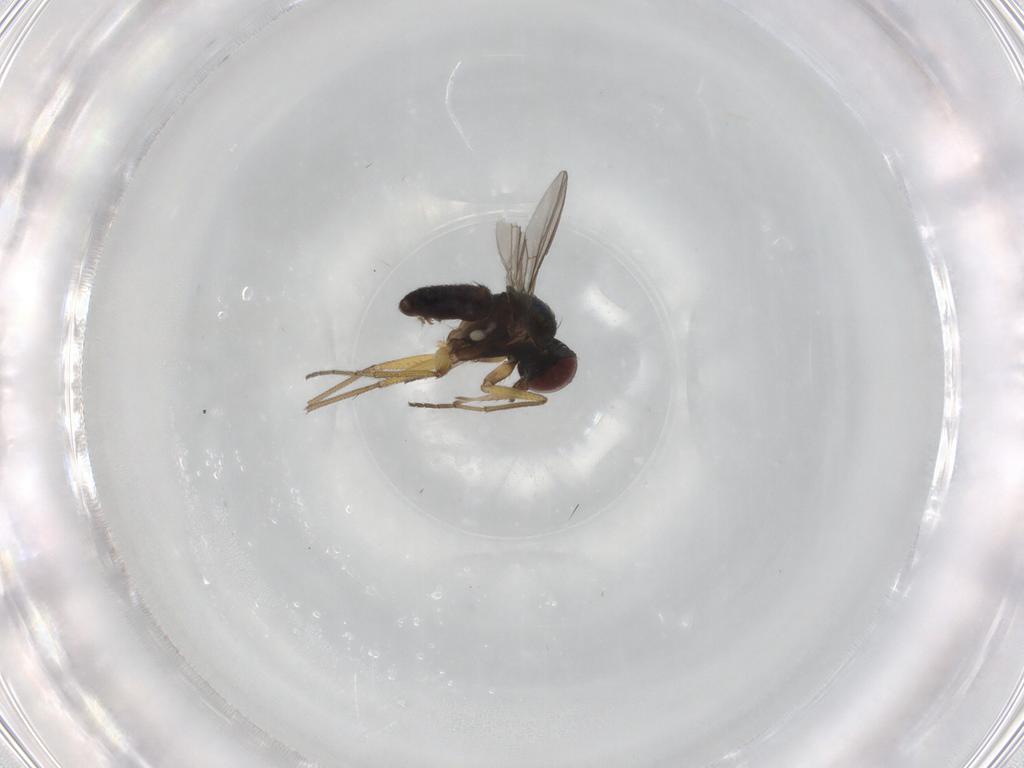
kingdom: Animalia
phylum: Arthropoda
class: Insecta
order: Diptera
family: Dolichopodidae
